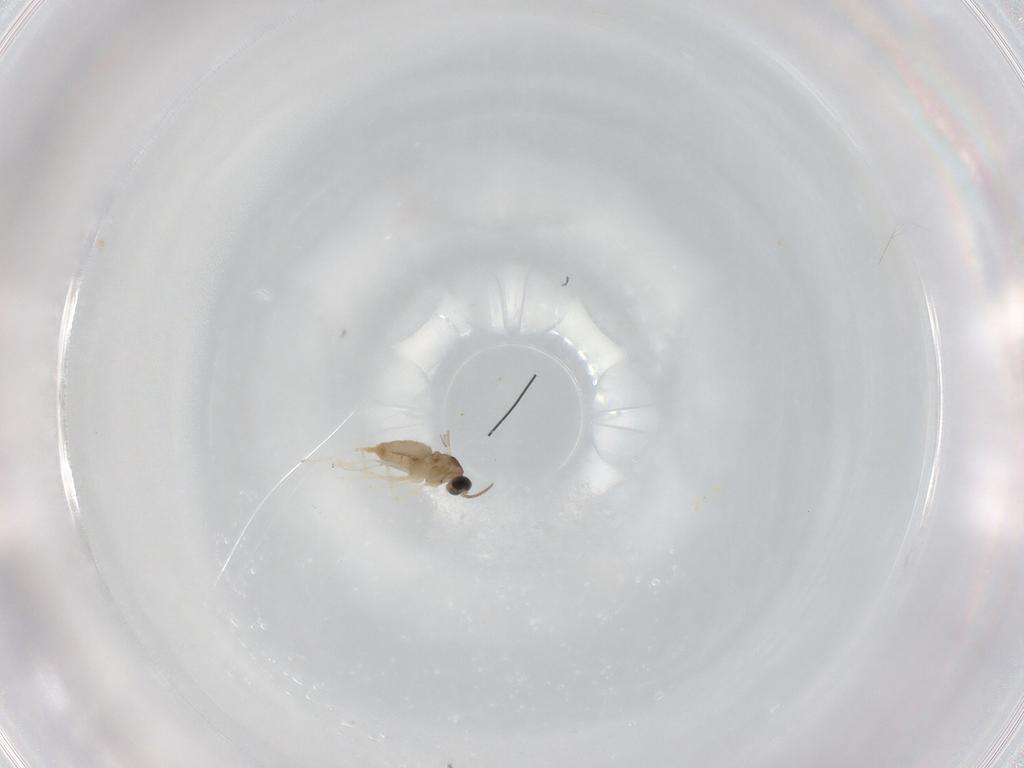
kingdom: Animalia
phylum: Arthropoda
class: Insecta
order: Diptera
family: Cecidomyiidae
